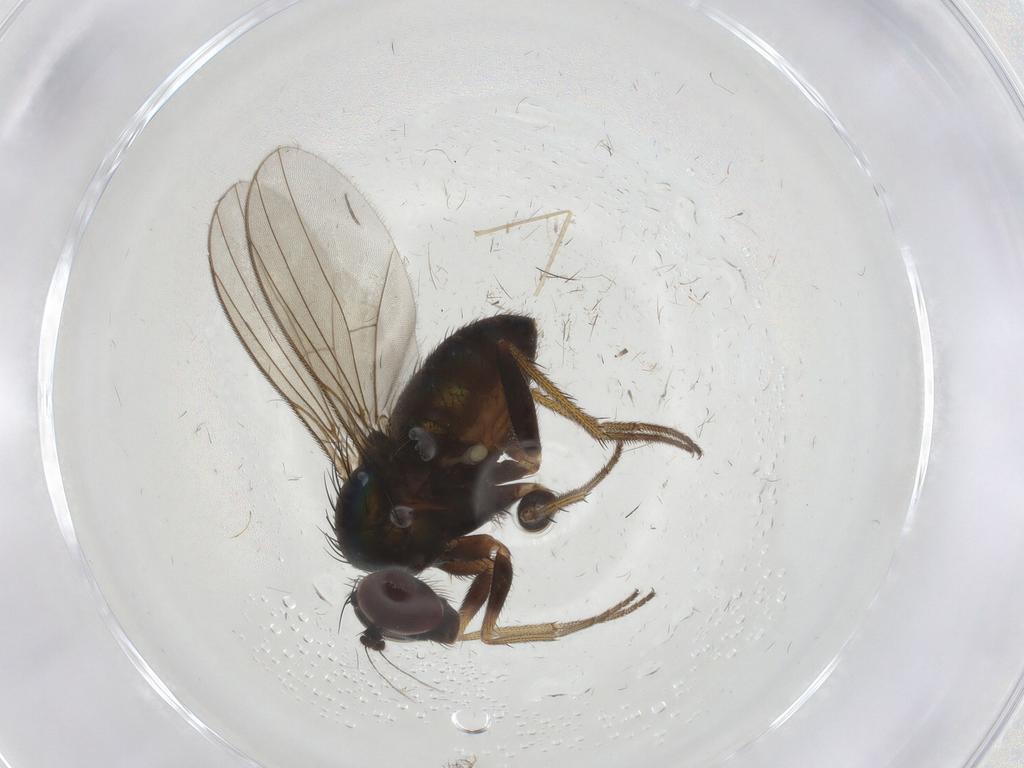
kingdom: Animalia
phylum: Arthropoda
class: Insecta
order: Diptera
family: Dolichopodidae
